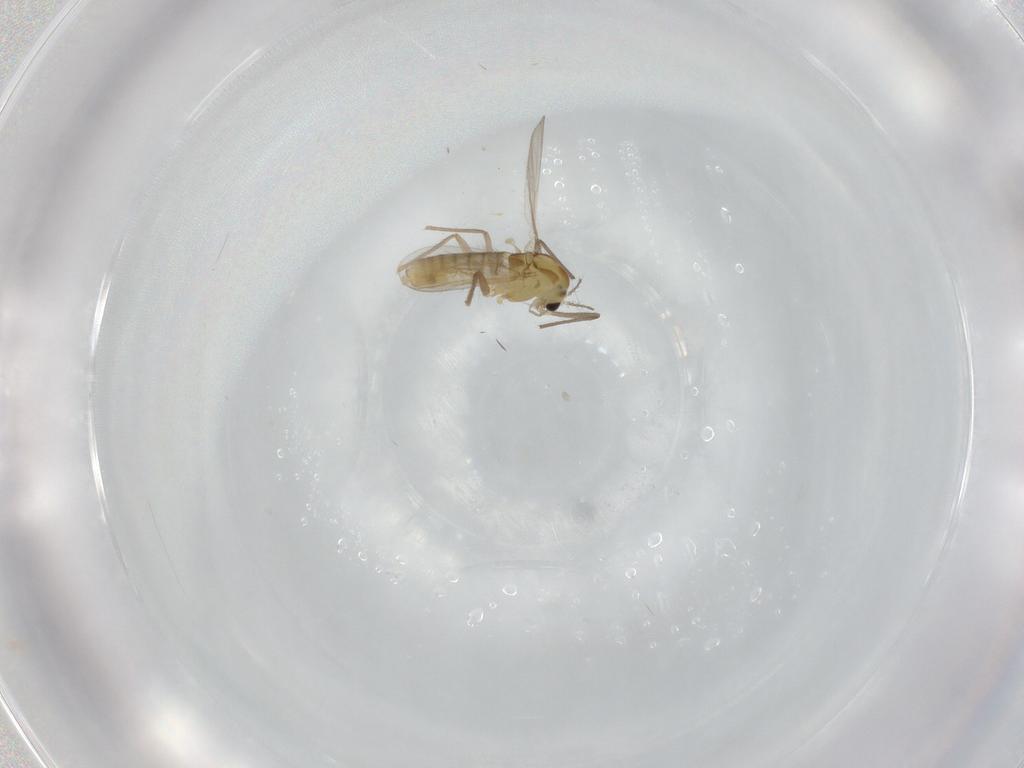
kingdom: Animalia
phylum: Arthropoda
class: Insecta
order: Diptera
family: Chironomidae
